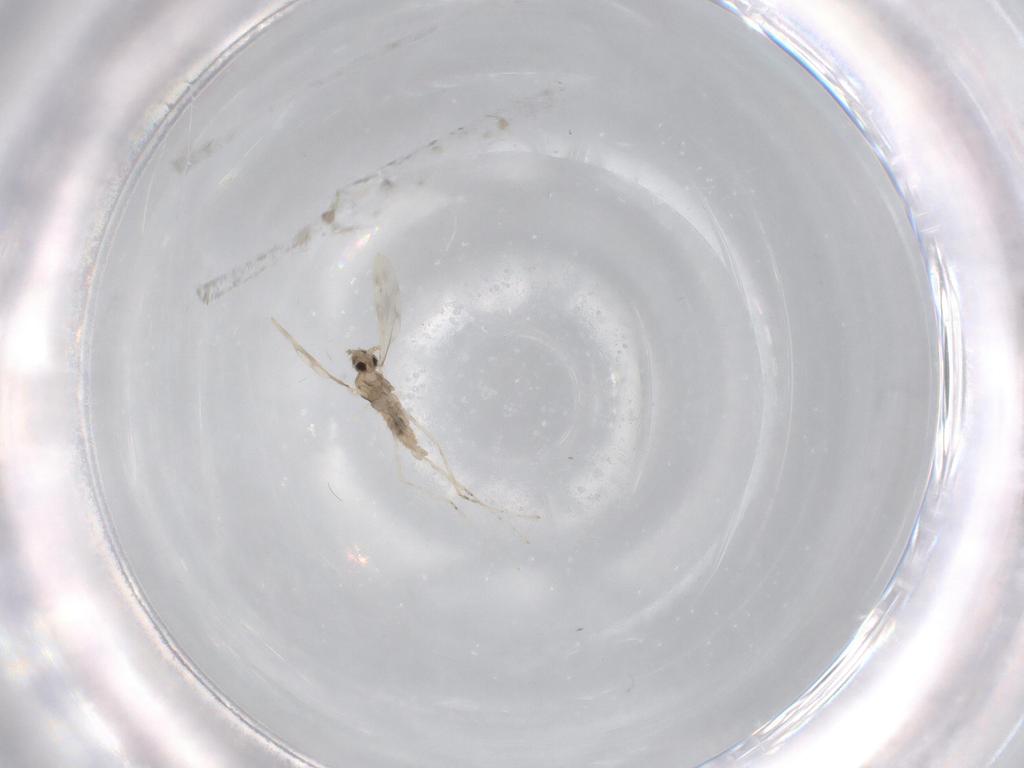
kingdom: Animalia
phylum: Arthropoda
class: Insecta
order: Diptera
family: Cecidomyiidae
